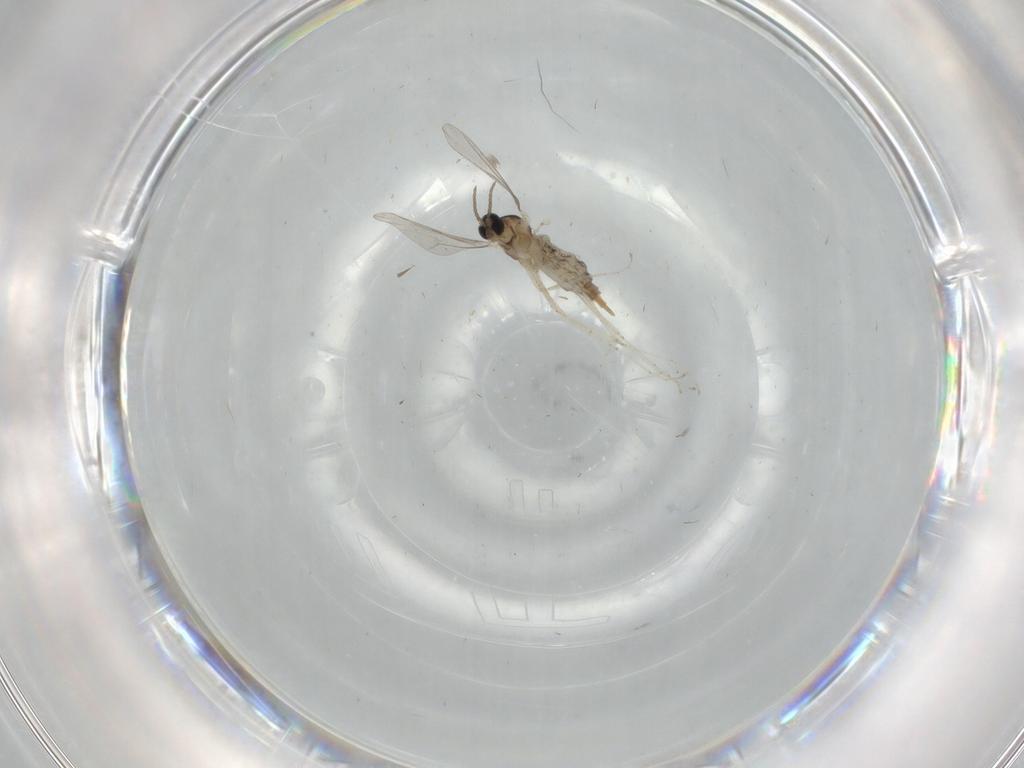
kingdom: Animalia
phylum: Arthropoda
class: Insecta
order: Diptera
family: Cecidomyiidae
